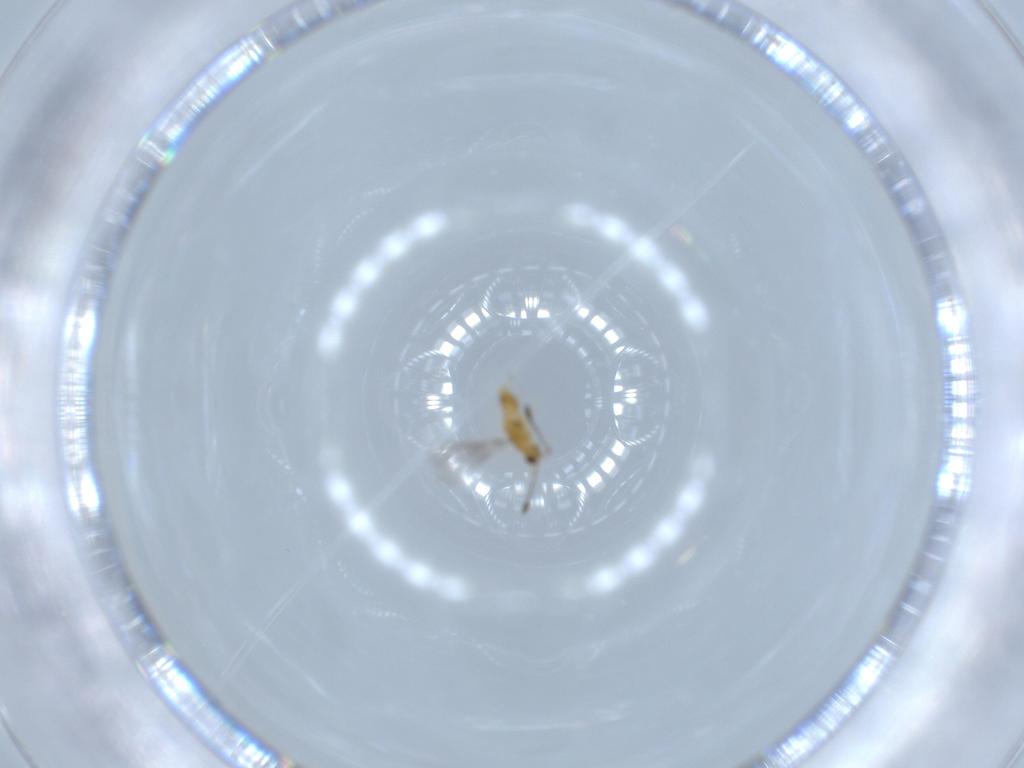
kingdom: Animalia
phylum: Arthropoda
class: Insecta
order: Hymenoptera
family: Mymaridae
